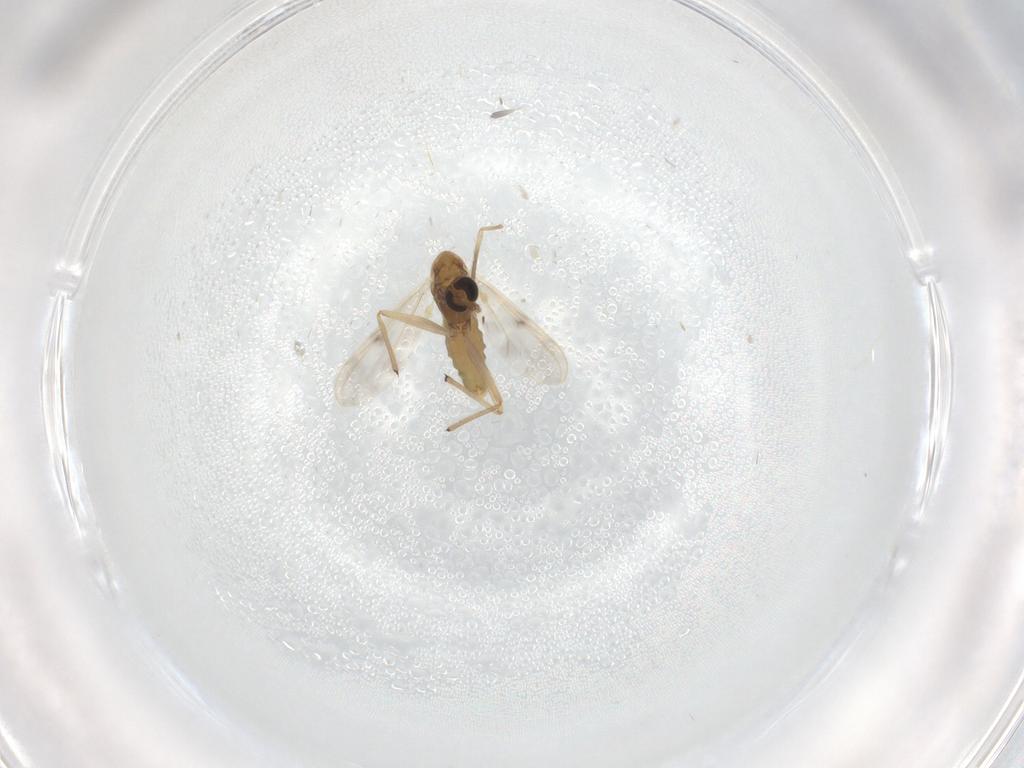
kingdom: Animalia
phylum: Arthropoda
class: Insecta
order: Diptera
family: Chironomidae
